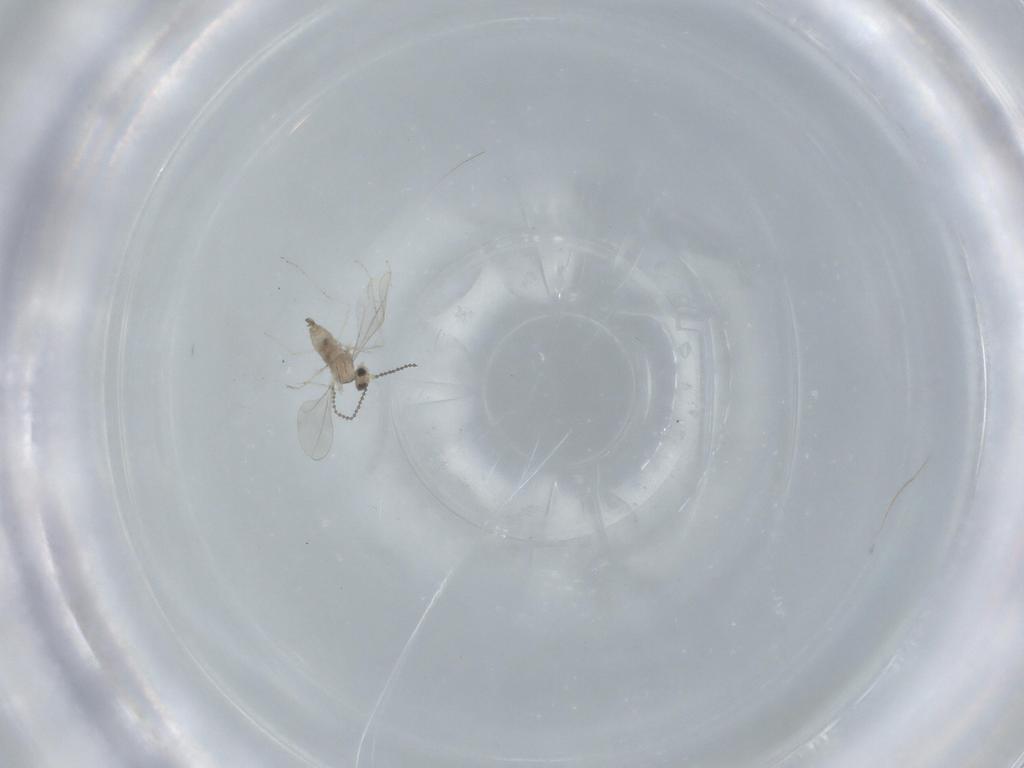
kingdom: Animalia
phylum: Arthropoda
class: Insecta
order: Diptera
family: Cecidomyiidae
